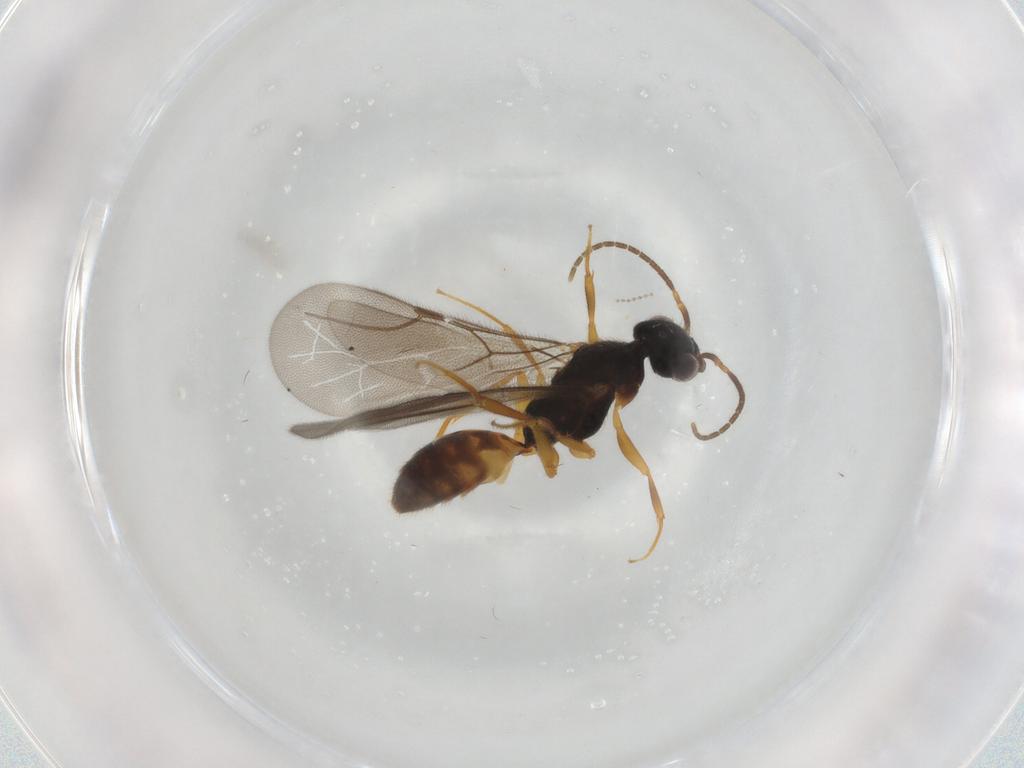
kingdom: Animalia
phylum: Arthropoda
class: Insecta
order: Hymenoptera
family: Bethylidae
